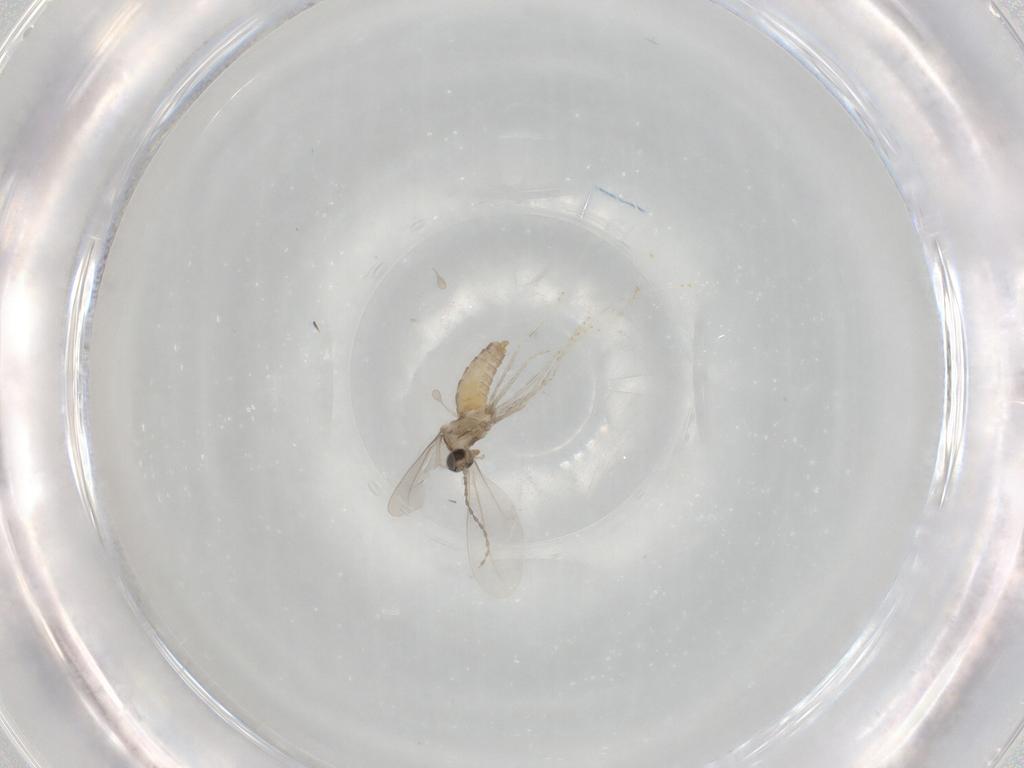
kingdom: Animalia
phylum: Arthropoda
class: Insecta
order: Diptera
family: Cecidomyiidae
